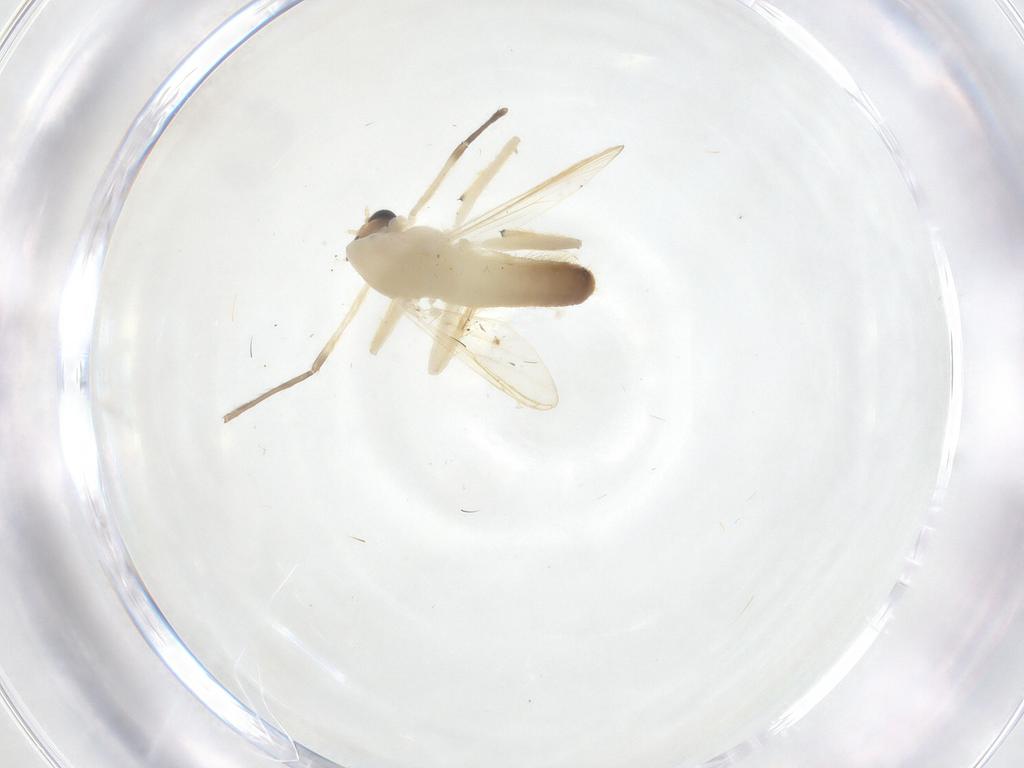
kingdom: Animalia
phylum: Arthropoda
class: Insecta
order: Diptera
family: Chironomidae
